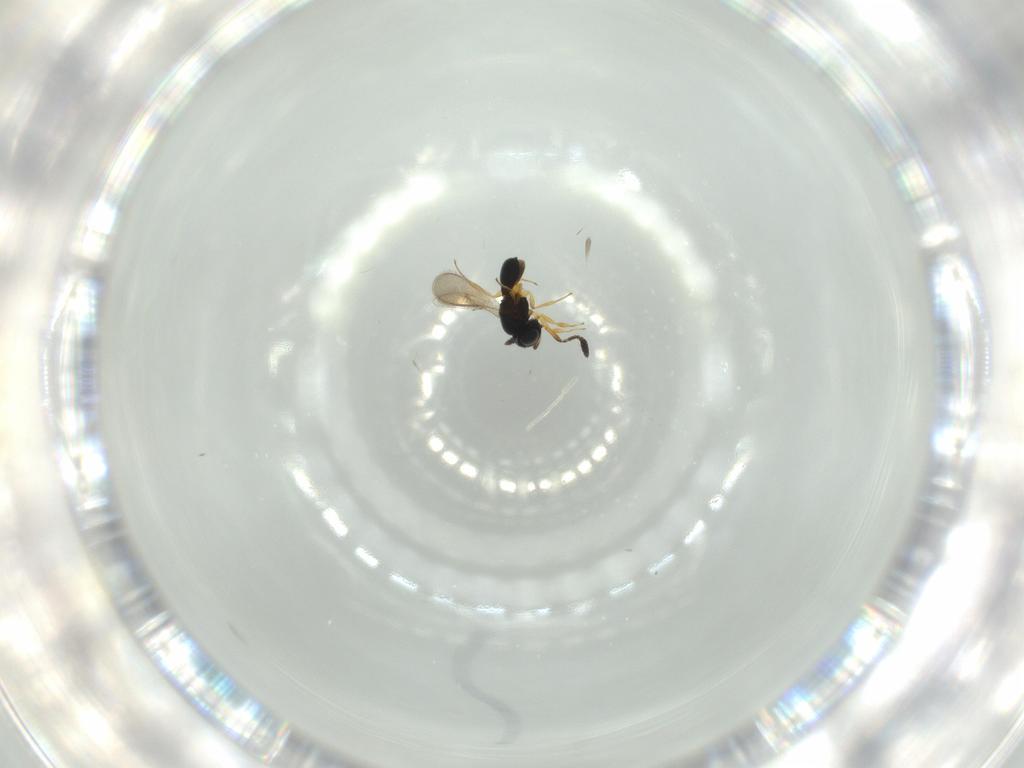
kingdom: Animalia
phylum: Arthropoda
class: Insecta
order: Hymenoptera
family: Scelionidae
